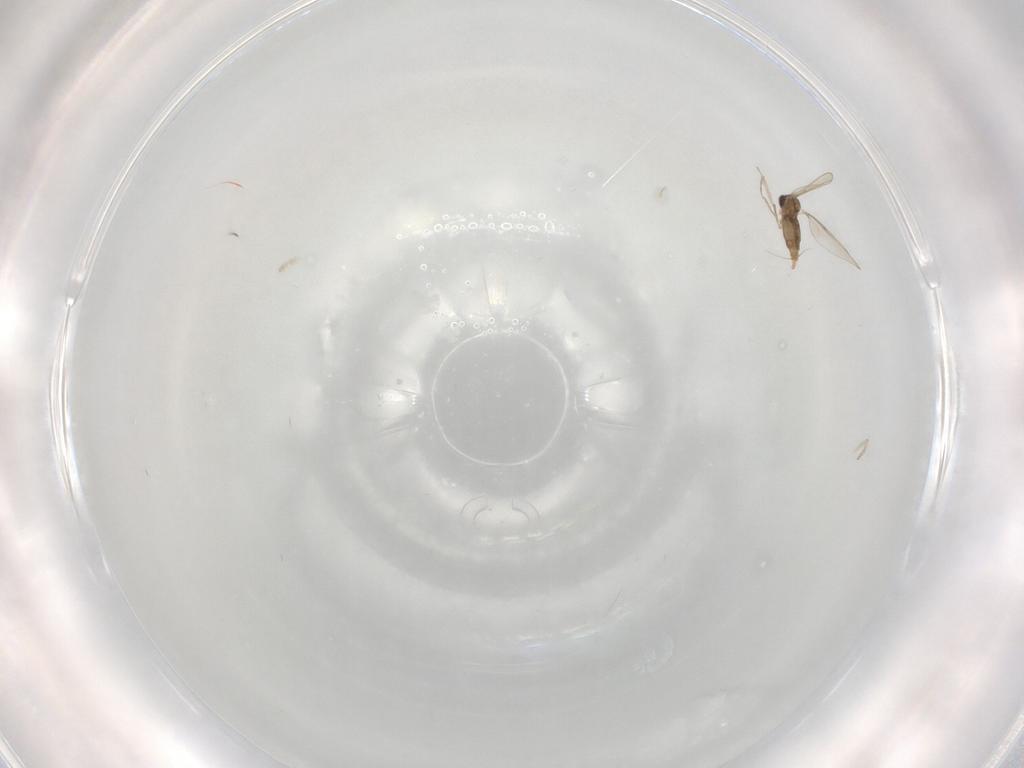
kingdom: Animalia
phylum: Arthropoda
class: Insecta
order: Diptera
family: Cecidomyiidae
